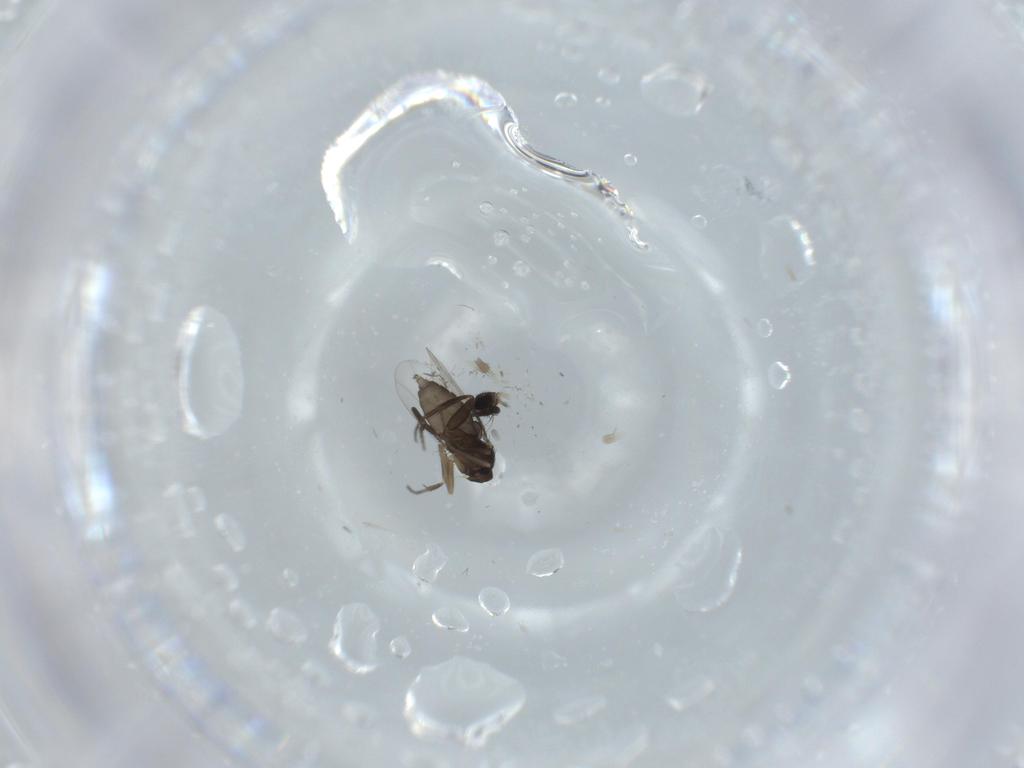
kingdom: Animalia
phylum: Arthropoda
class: Insecta
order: Diptera
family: Phoridae
